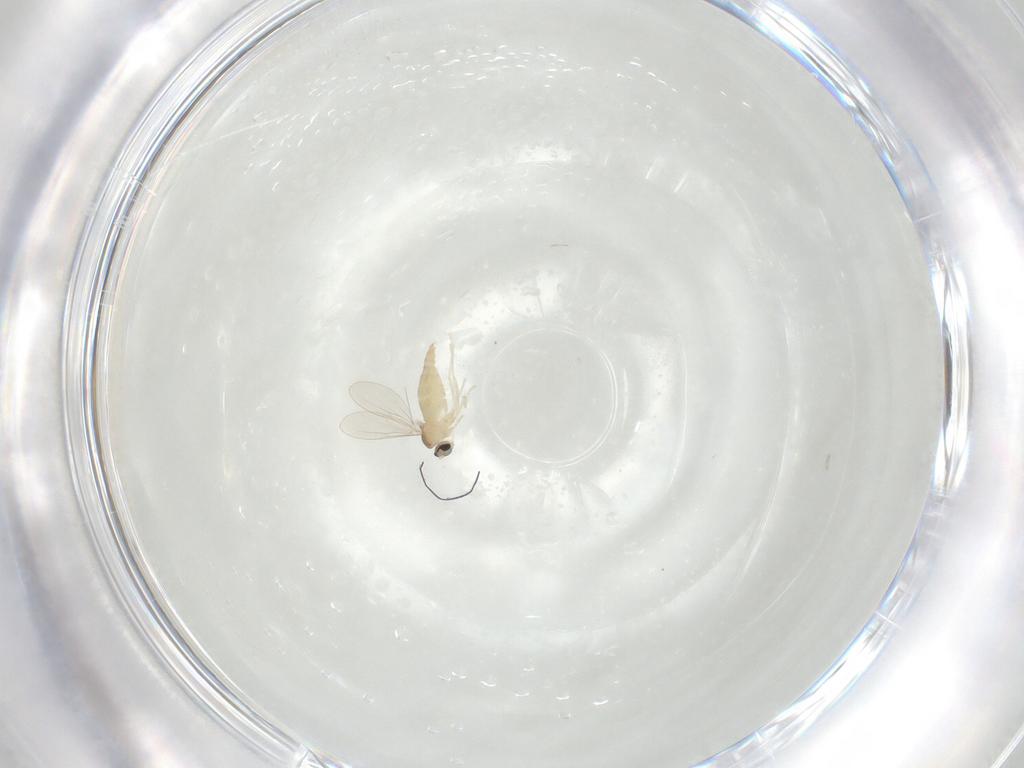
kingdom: Animalia
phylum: Arthropoda
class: Insecta
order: Diptera
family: Cecidomyiidae
